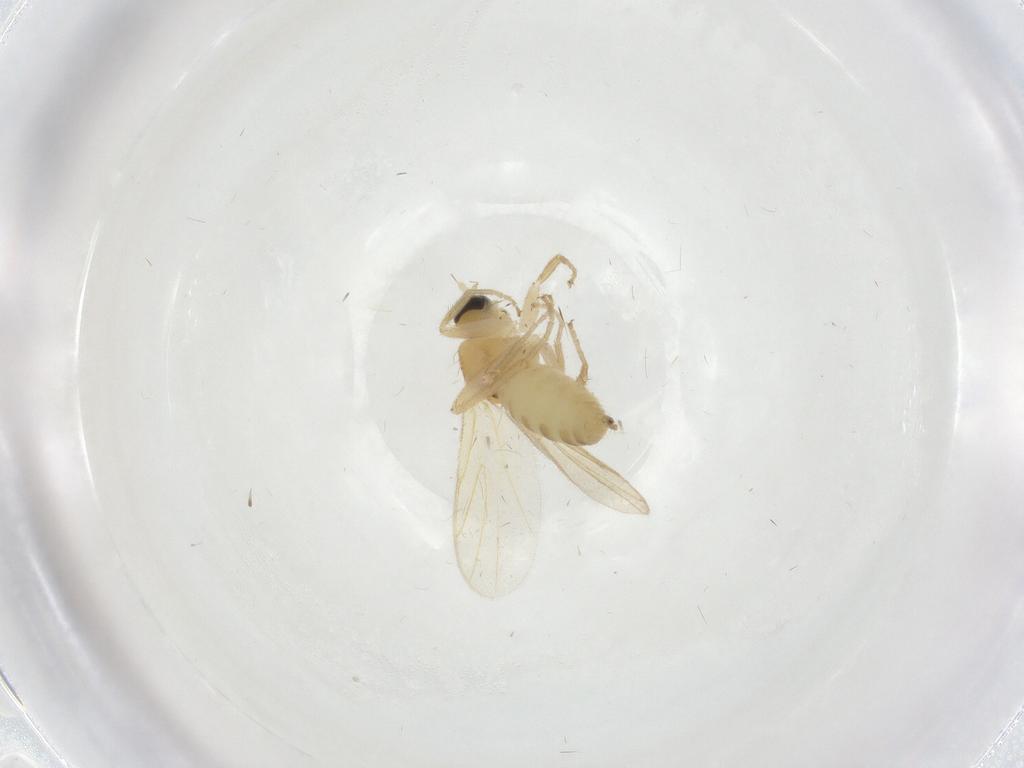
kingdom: Animalia
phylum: Arthropoda
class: Insecta
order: Diptera
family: Hybotidae
